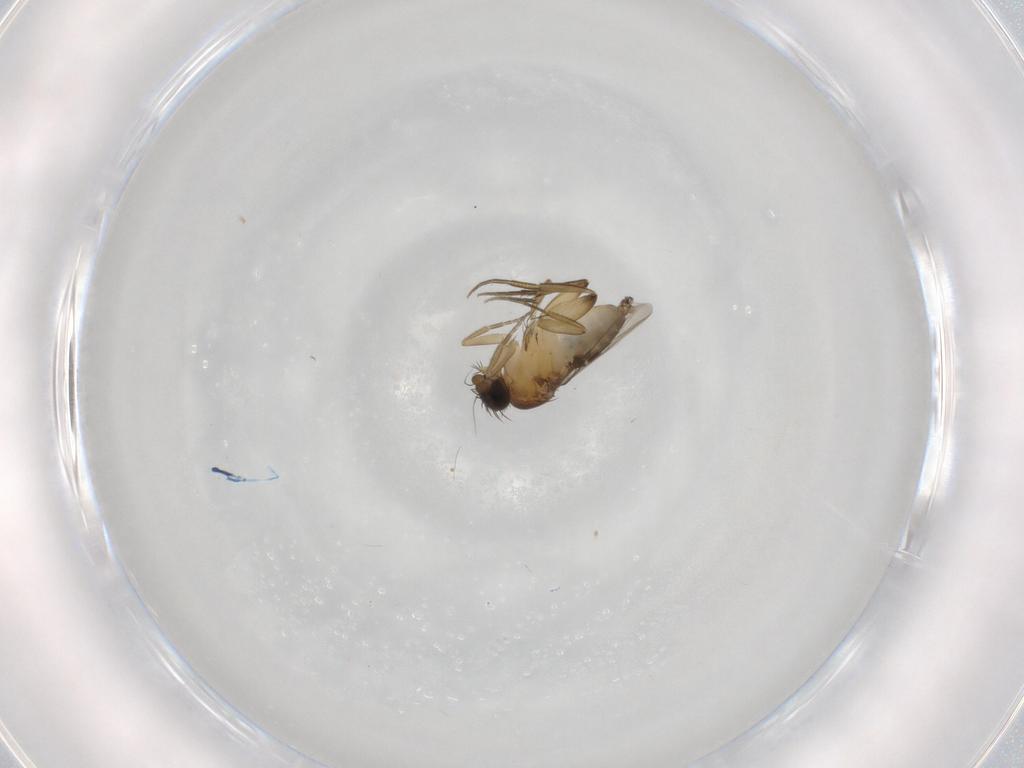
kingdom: Animalia
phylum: Arthropoda
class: Insecta
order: Diptera
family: Phoridae
